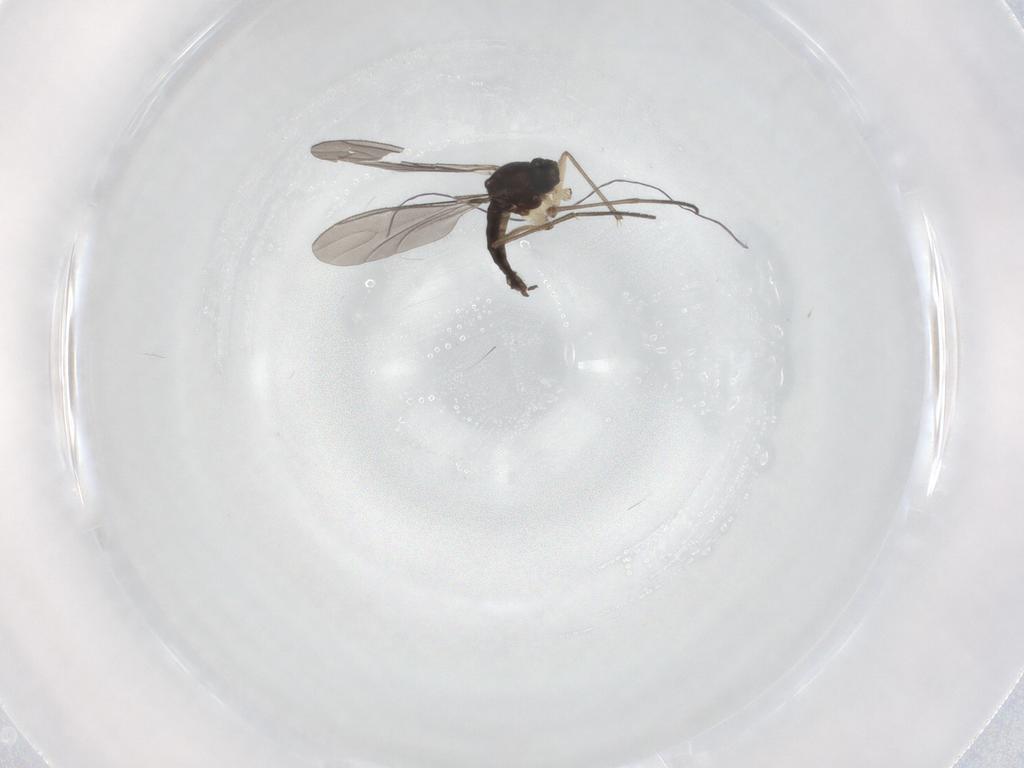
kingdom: Animalia
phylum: Arthropoda
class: Insecta
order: Diptera
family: Sciaridae
